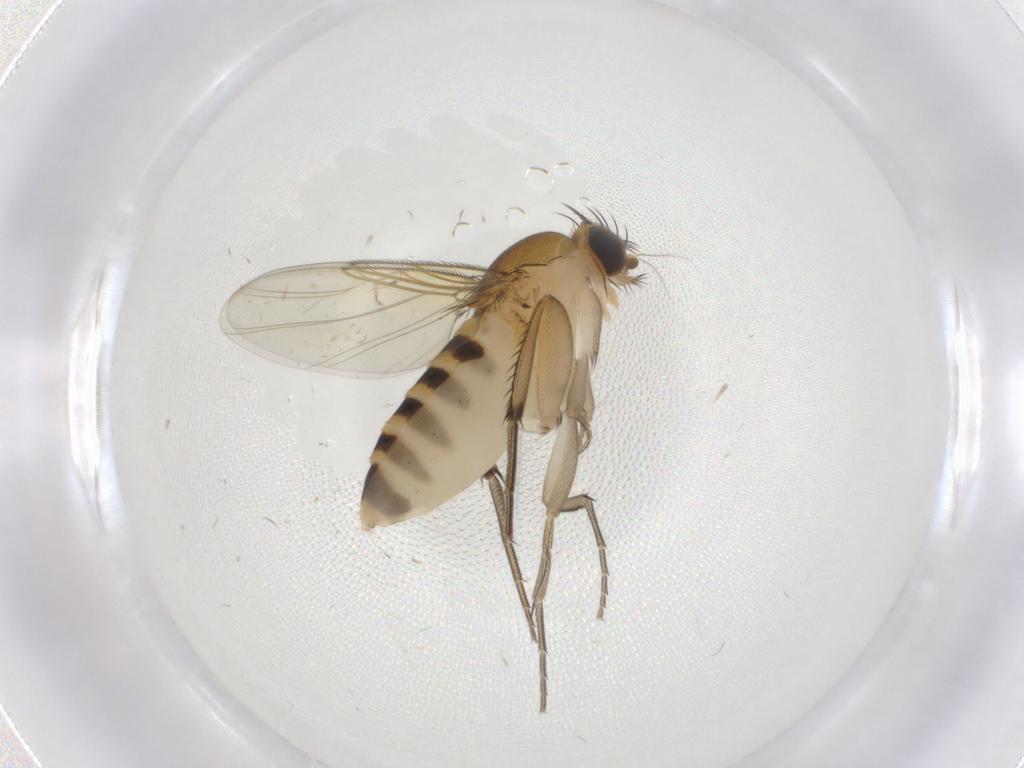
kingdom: Animalia
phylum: Arthropoda
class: Insecta
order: Diptera
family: Phoridae
